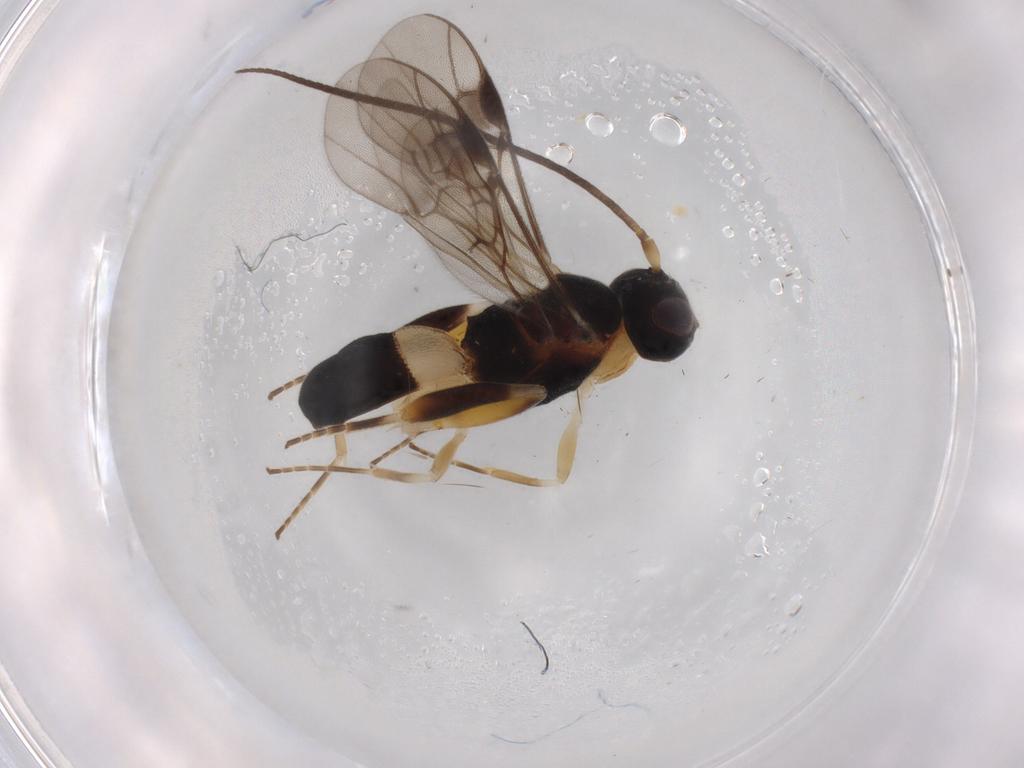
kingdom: Animalia
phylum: Arthropoda
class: Insecta
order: Hymenoptera
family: Braconidae
